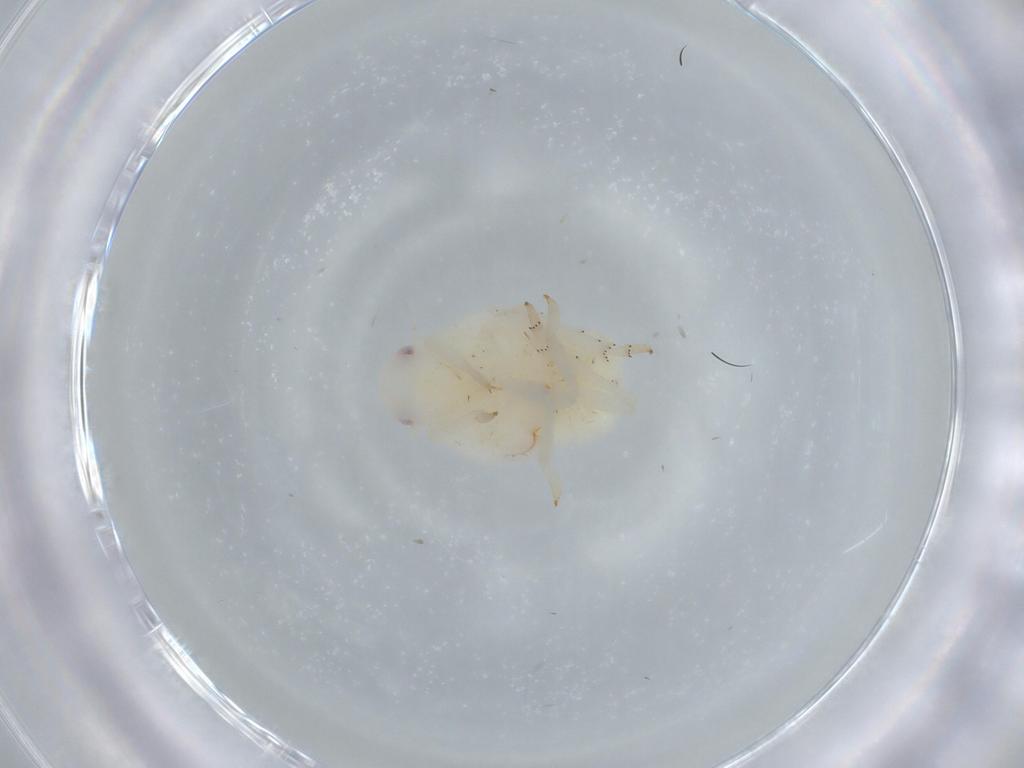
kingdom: Animalia
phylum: Arthropoda
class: Insecta
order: Hemiptera
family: Flatidae
